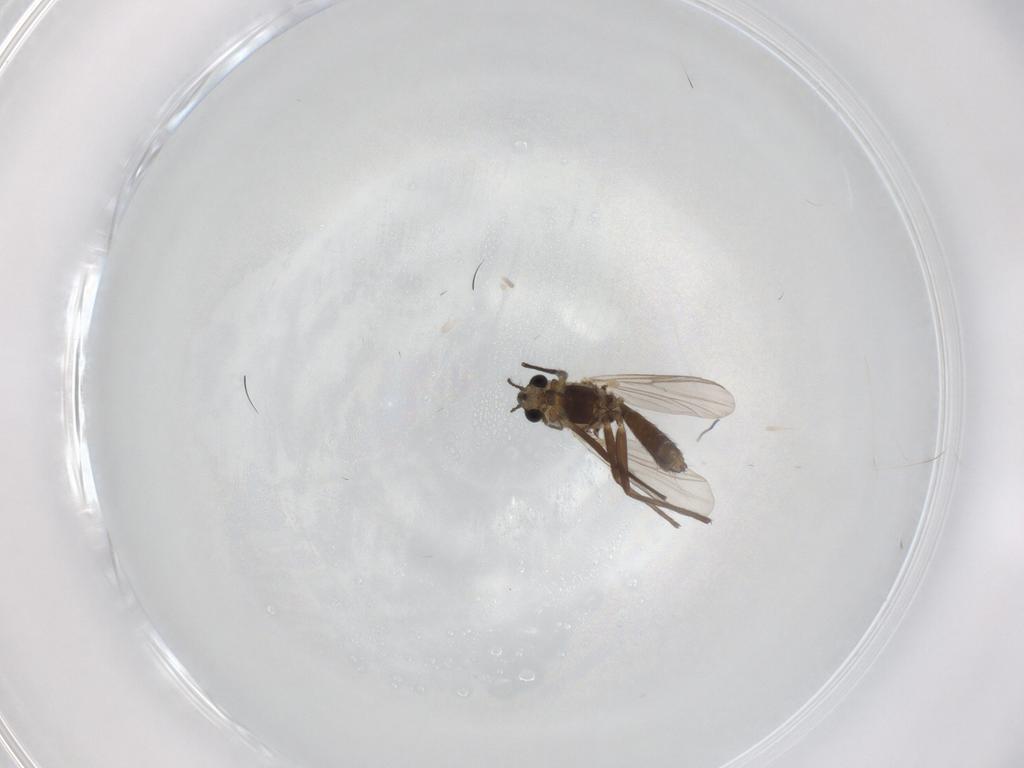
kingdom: Animalia
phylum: Arthropoda
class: Insecta
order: Diptera
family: Chironomidae
